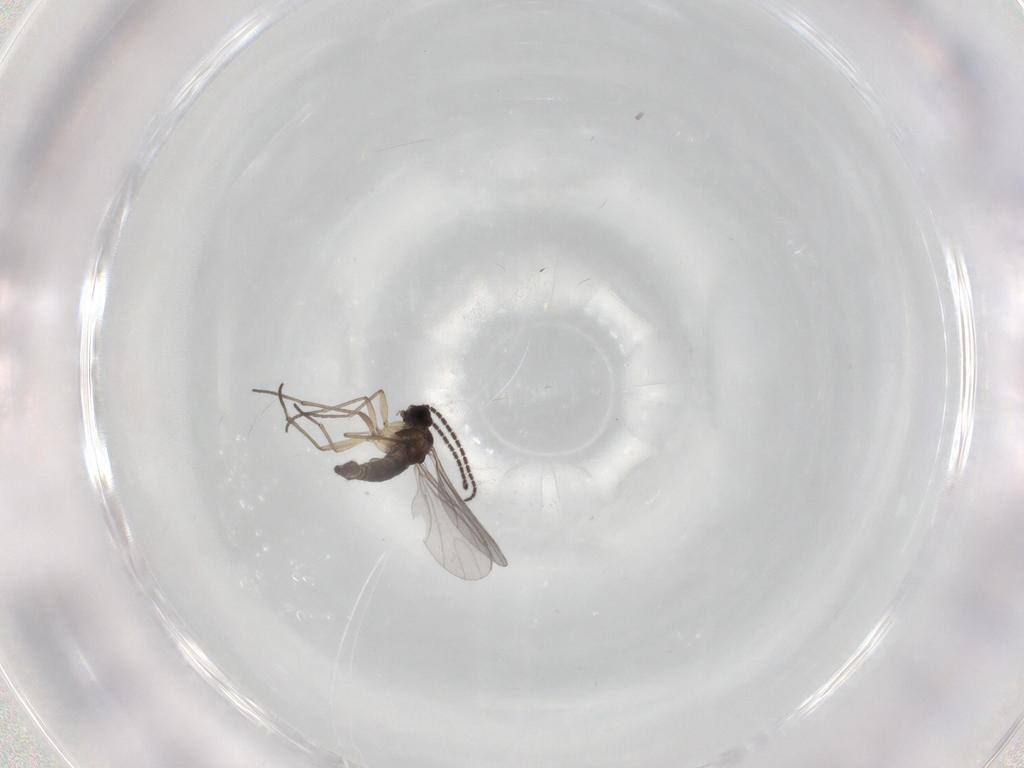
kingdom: Animalia
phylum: Arthropoda
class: Insecta
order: Diptera
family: Sciaridae
